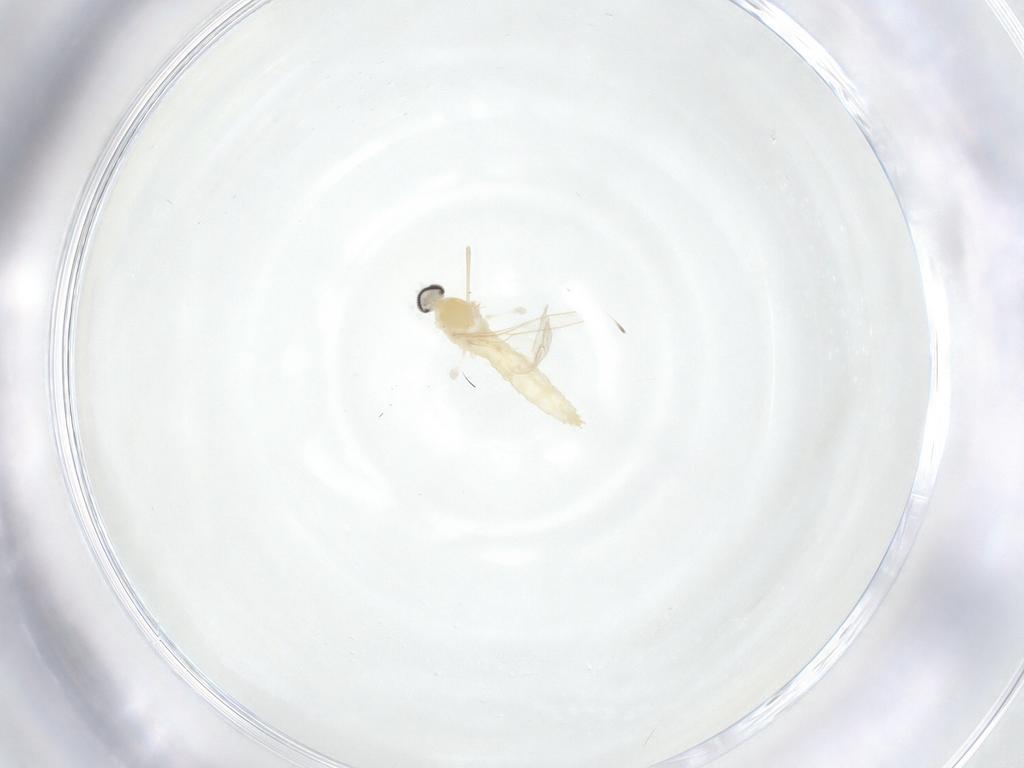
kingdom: Animalia
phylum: Arthropoda
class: Insecta
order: Diptera
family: Cecidomyiidae
